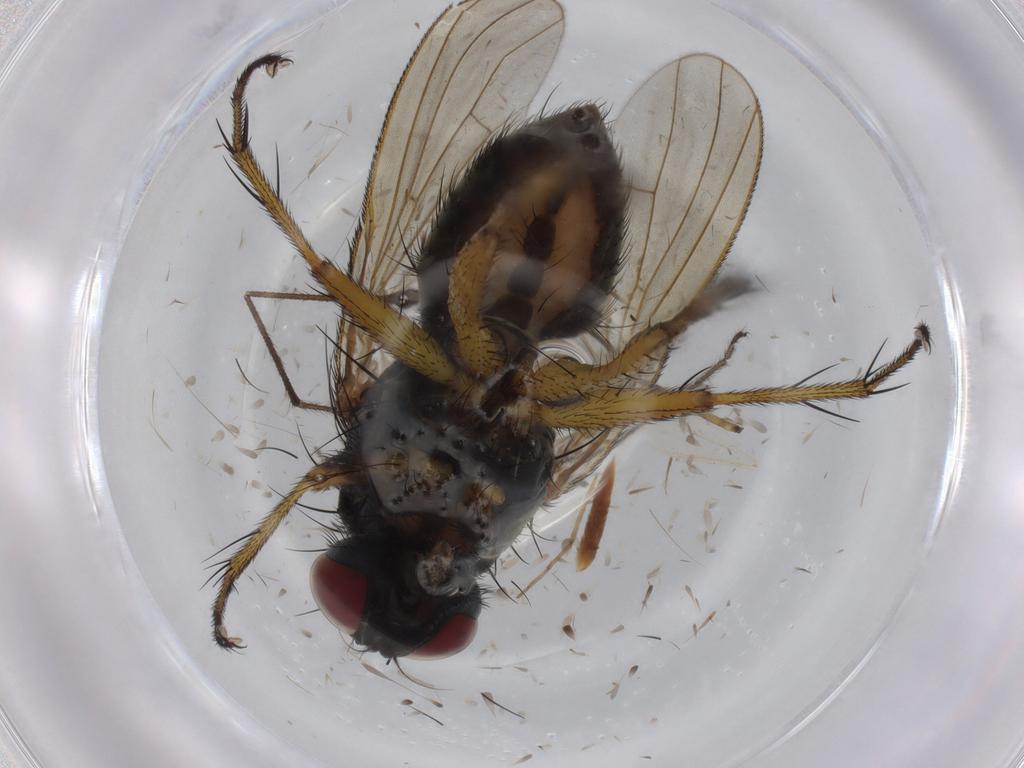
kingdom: Animalia
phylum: Arthropoda
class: Insecta
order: Diptera
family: Muscidae
